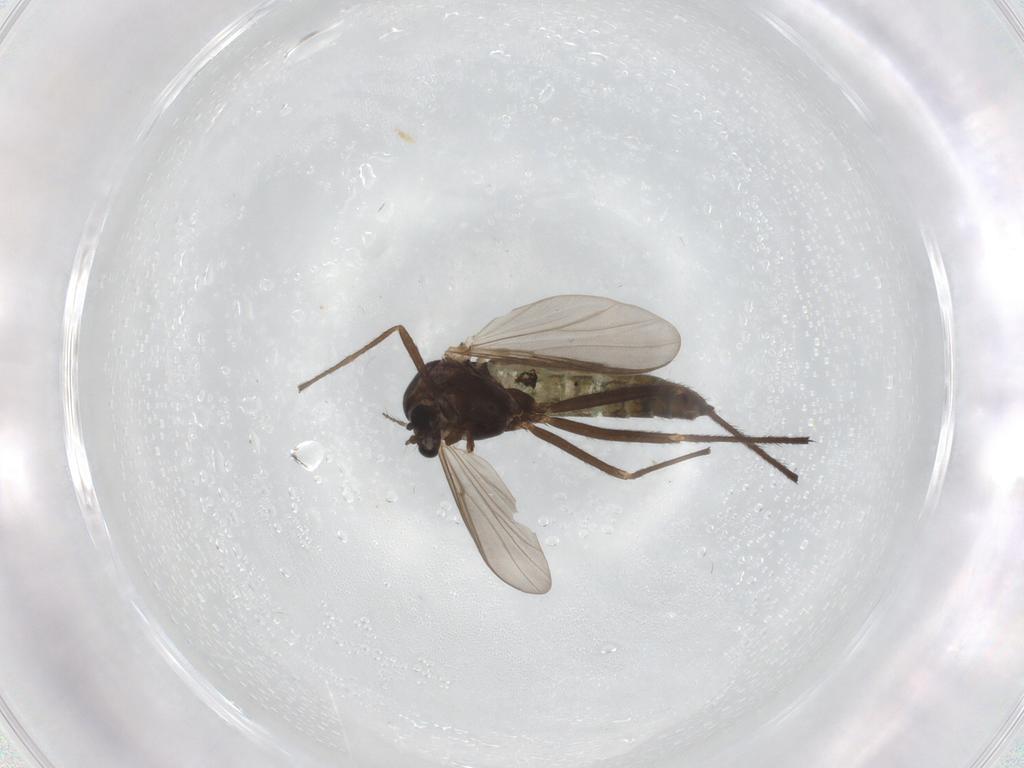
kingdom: Animalia
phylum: Arthropoda
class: Insecta
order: Diptera
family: Chironomidae
